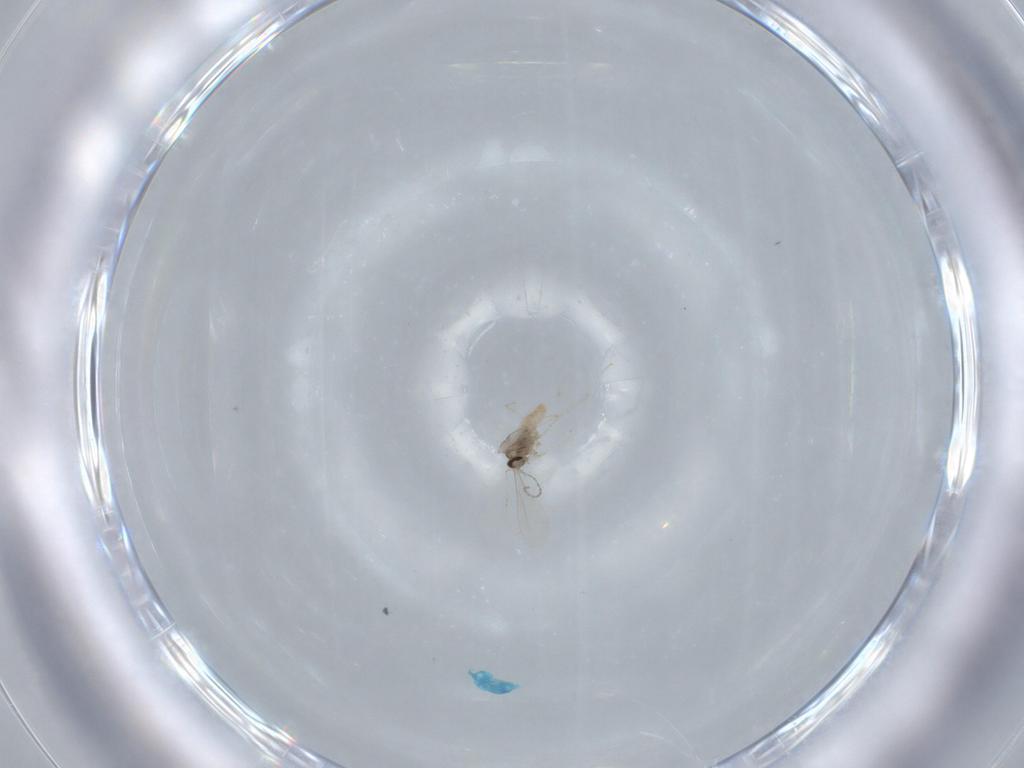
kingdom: Animalia
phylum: Arthropoda
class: Insecta
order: Diptera
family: Cecidomyiidae
